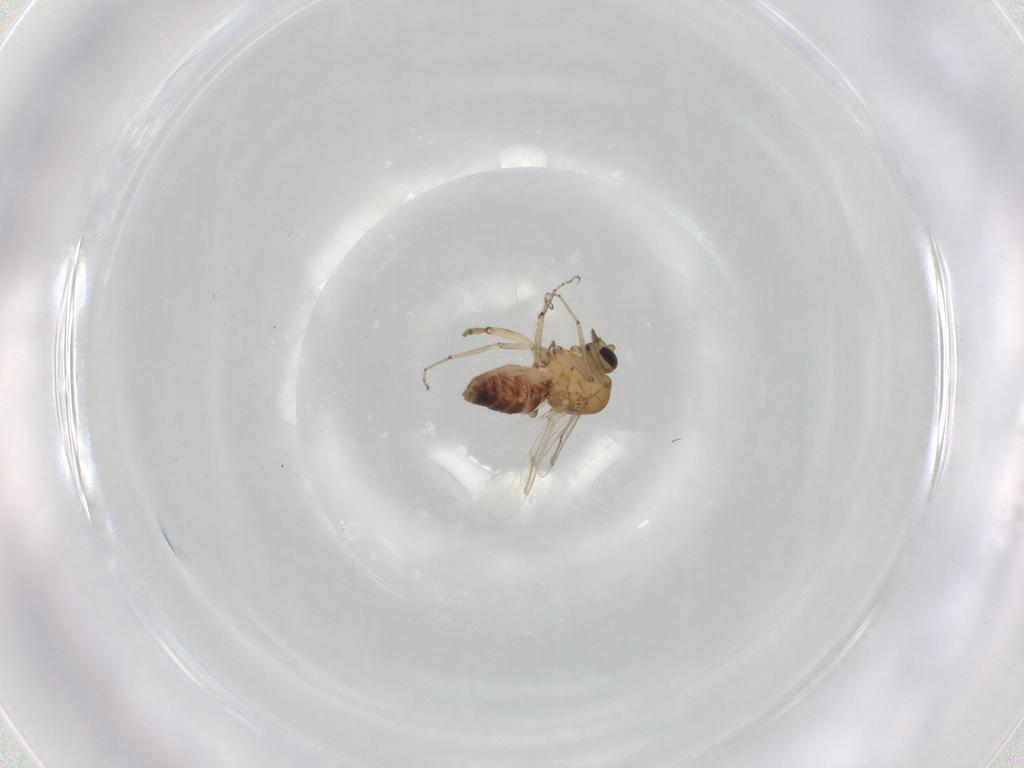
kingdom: Animalia
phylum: Arthropoda
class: Insecta
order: Diptera
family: Ceratopogonidae
